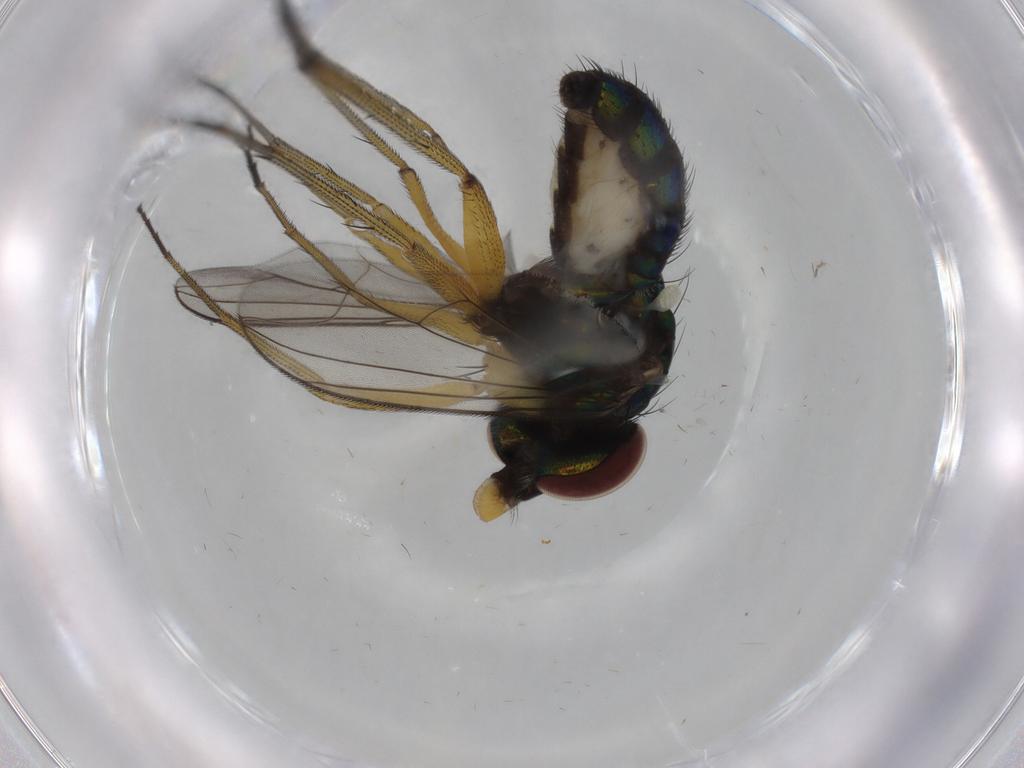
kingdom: Animalia
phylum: Arthropoda
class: Insecta
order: Diptera
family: Dolichopodidae
